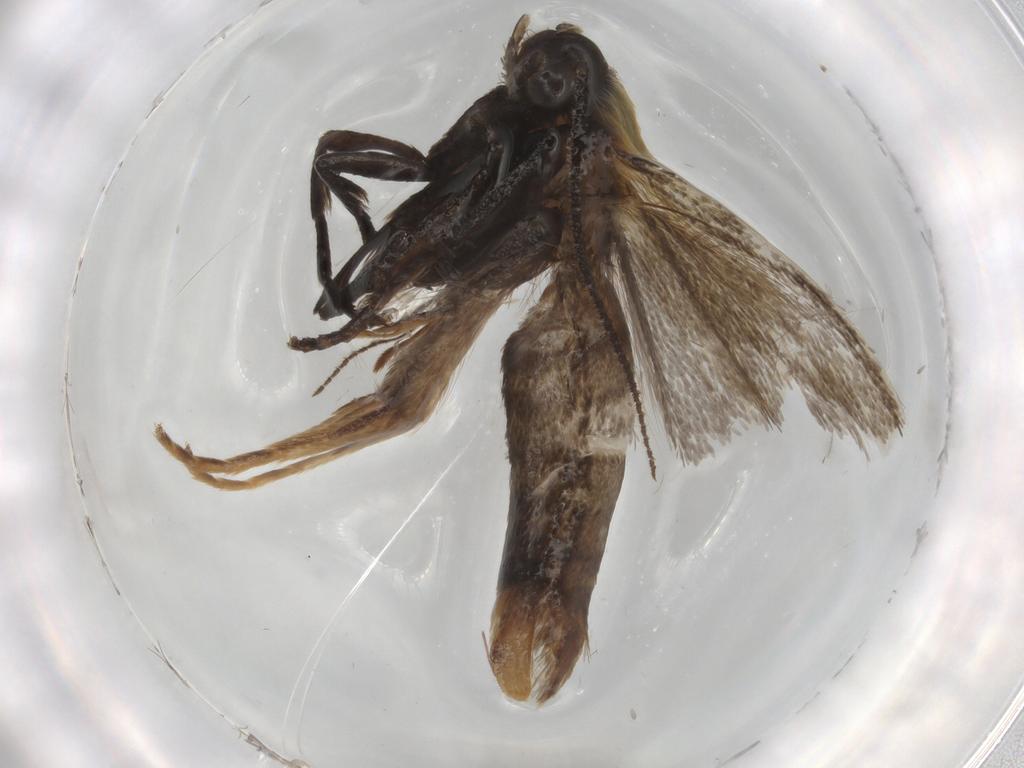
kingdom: Animalia
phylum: Arthropoda
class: Insecta
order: Lepidoptera
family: Crambidae
